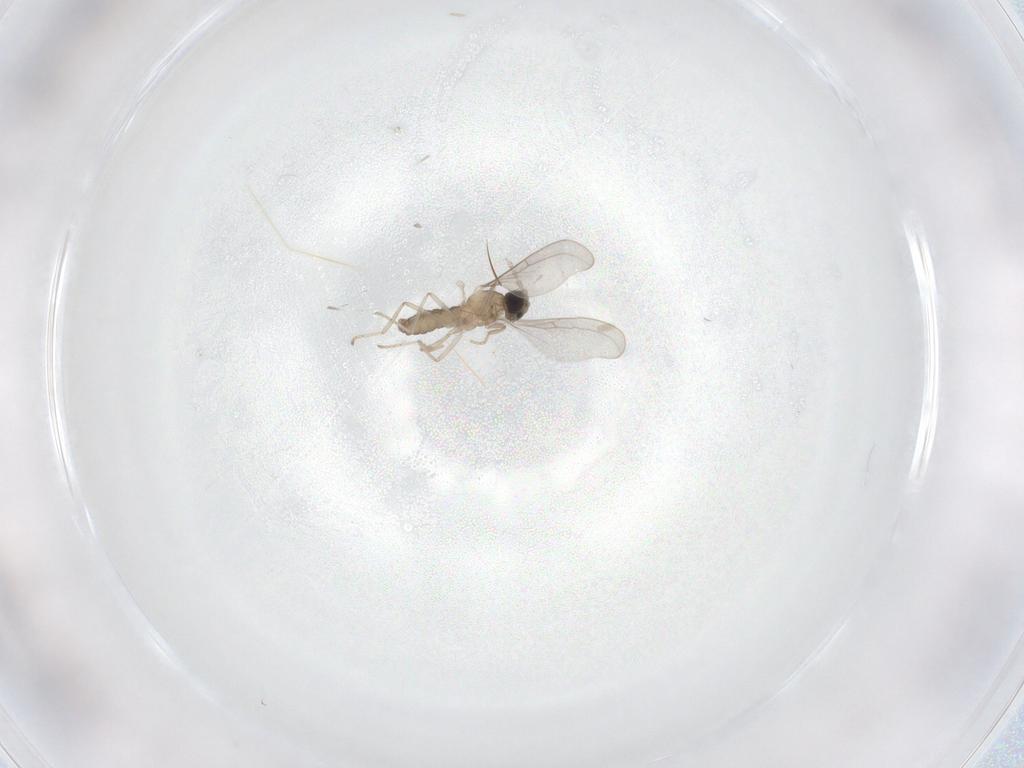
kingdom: Animalia
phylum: Arthropoda
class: Insecta
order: Diptera
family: Cecidomyiidae
